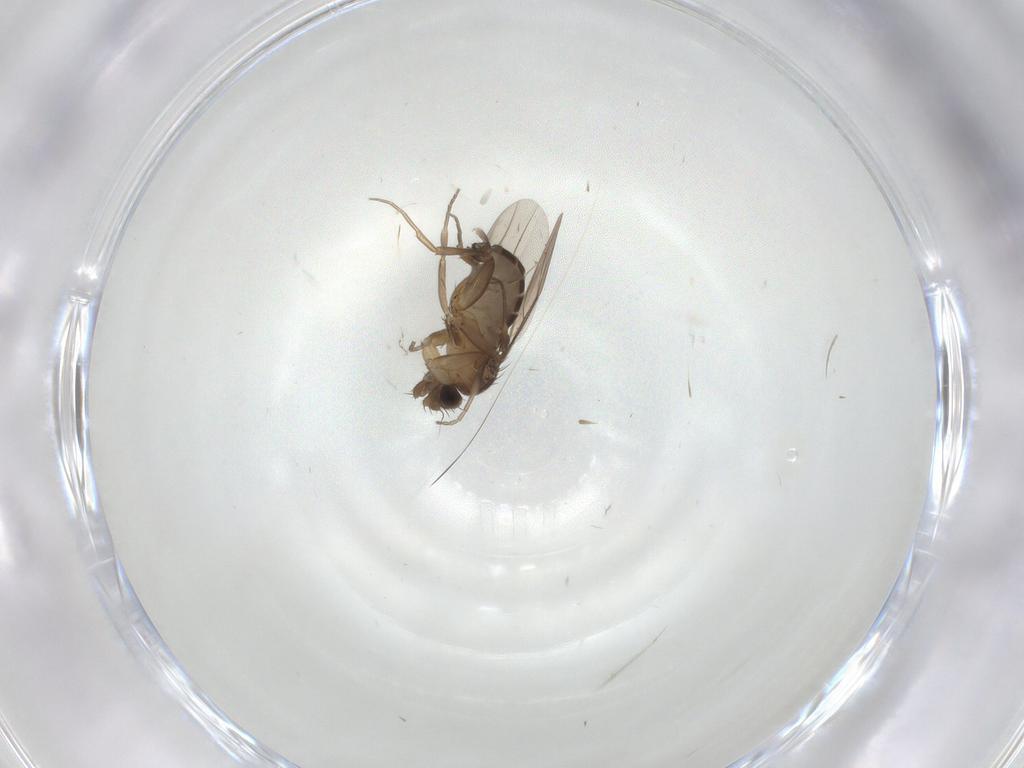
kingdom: Animalia
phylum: Arthropoda
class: Insecta
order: Diptera
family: Phoridae
